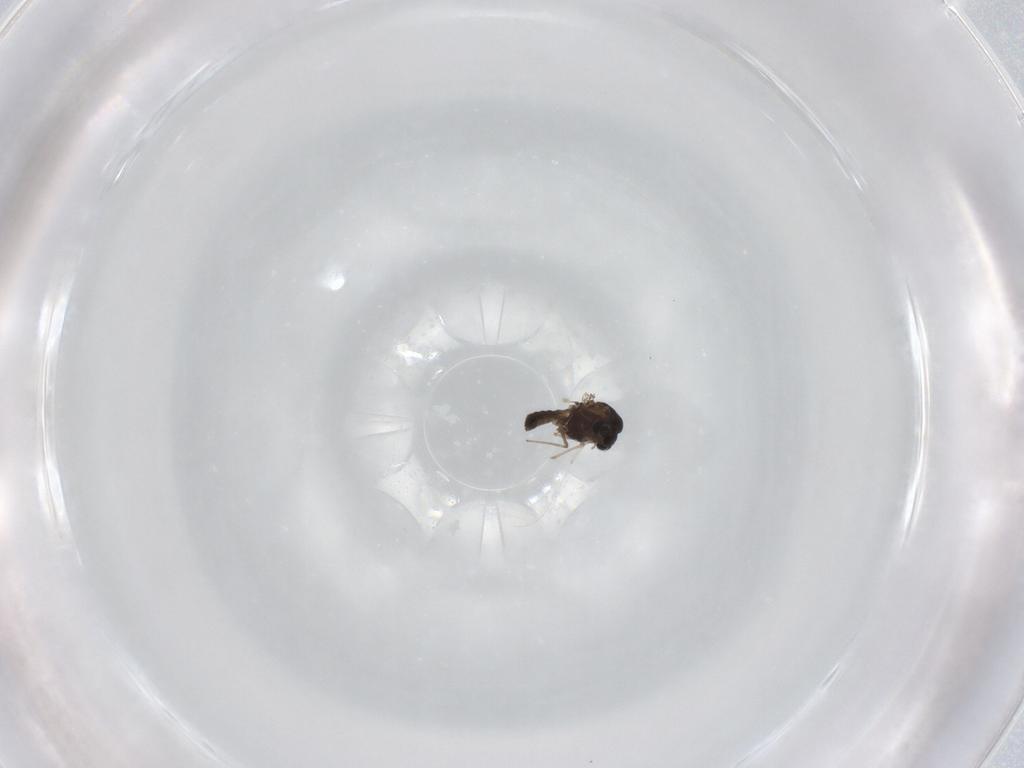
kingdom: Animalia
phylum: Arthropoda
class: Insecta
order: Diptera
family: Chironomidae
